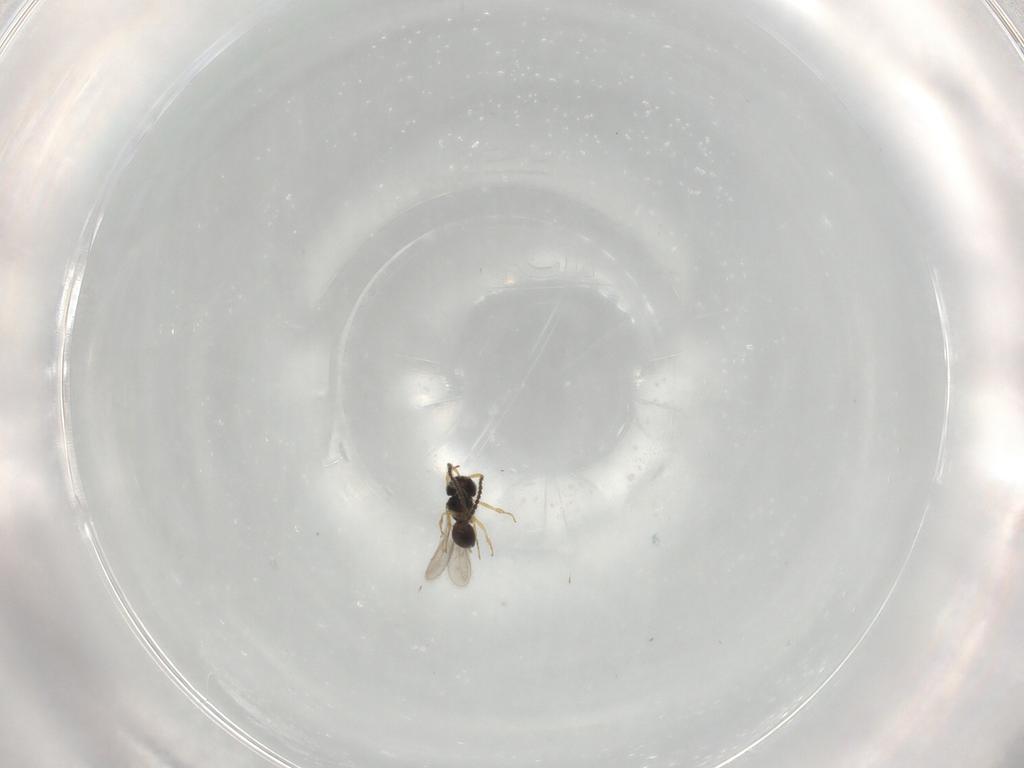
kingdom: Animalia
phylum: Arthropoda
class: Insecta
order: Hymenoptera
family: Scelionidae
